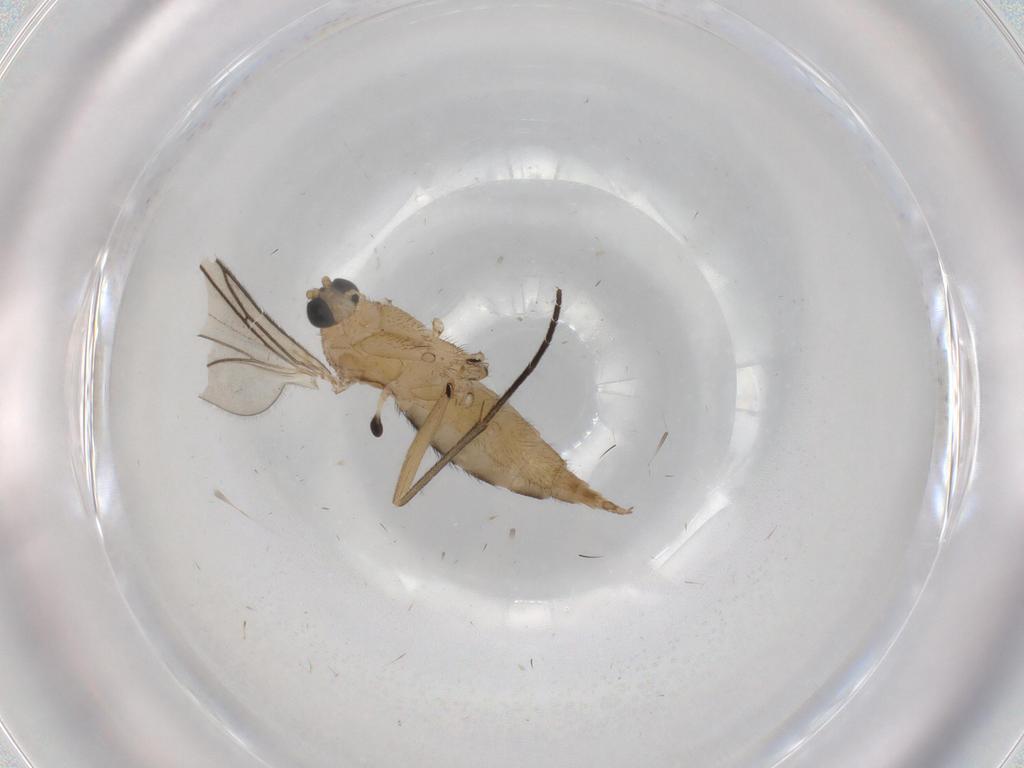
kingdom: Animalia
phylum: Arthropoda
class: Insecta
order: Diptera
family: Sciaridae
